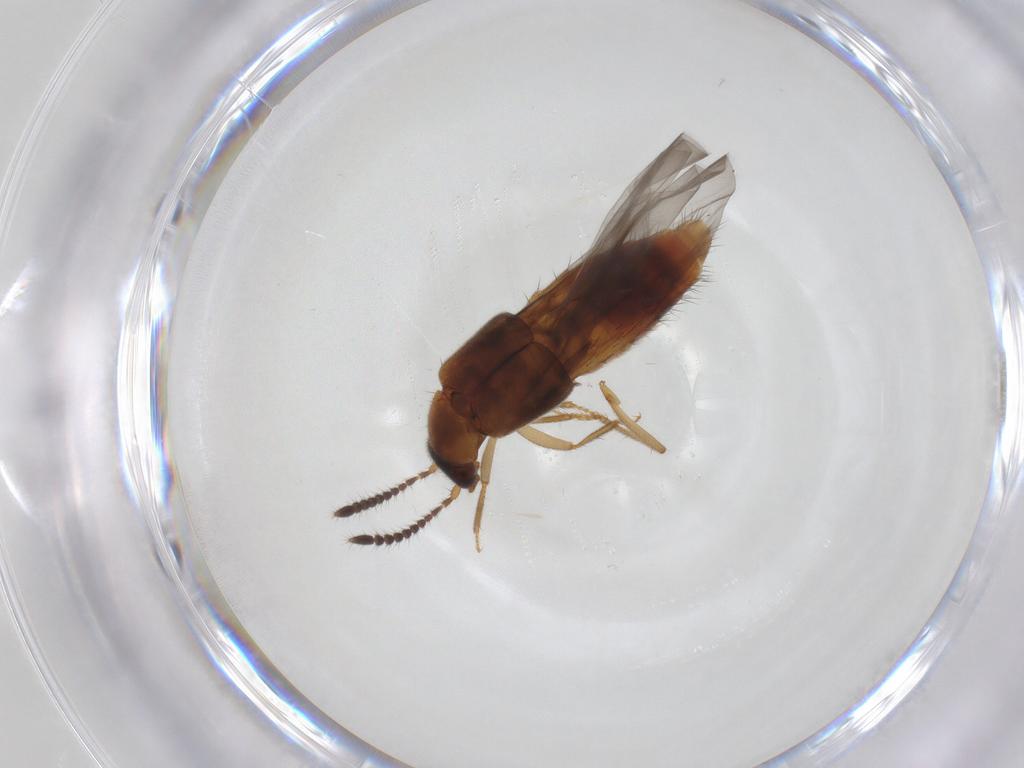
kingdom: Animalia
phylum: Arthropoda
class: Insecta
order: Coleoptera
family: Staphylinidae
